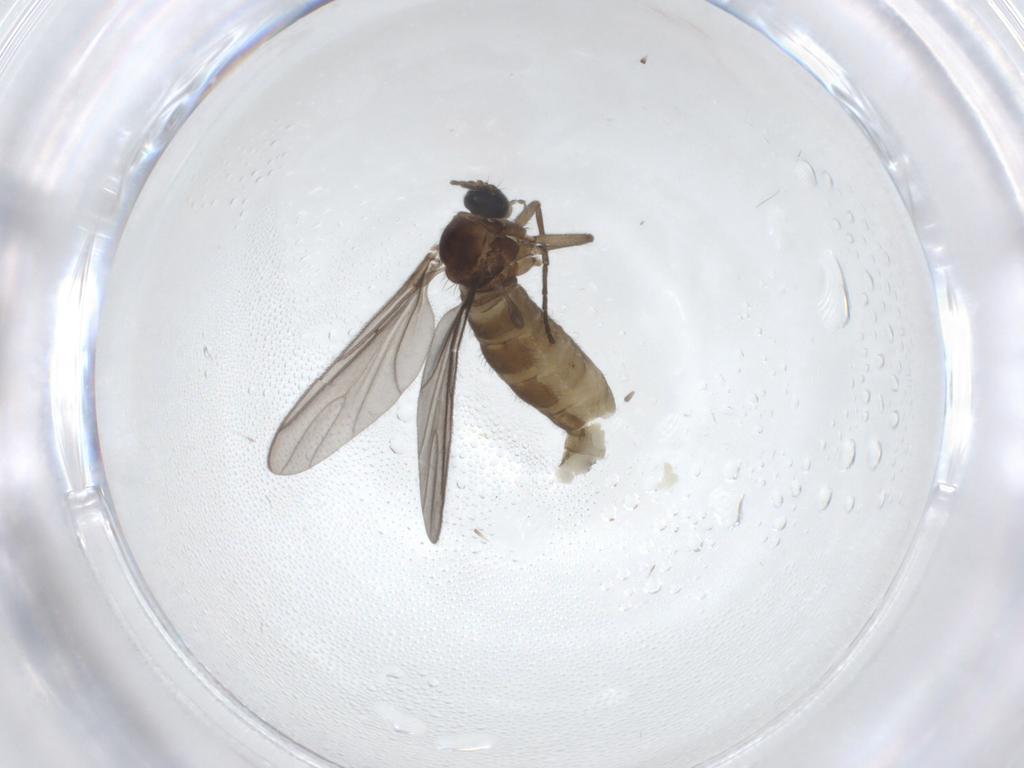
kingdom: Animalia
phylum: Arthropoda
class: Insecta
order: Diptera
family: Sciaridae
